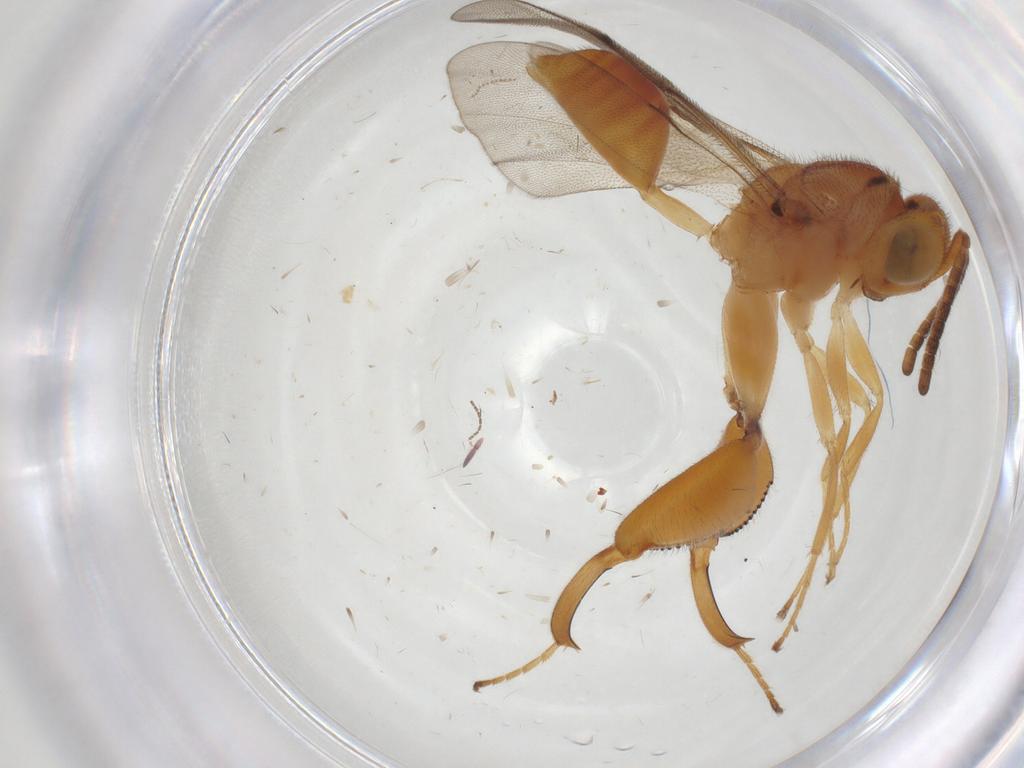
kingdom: Animalia
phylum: Arthropoda
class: Insecta
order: Hymenoptera
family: Chalcididae
